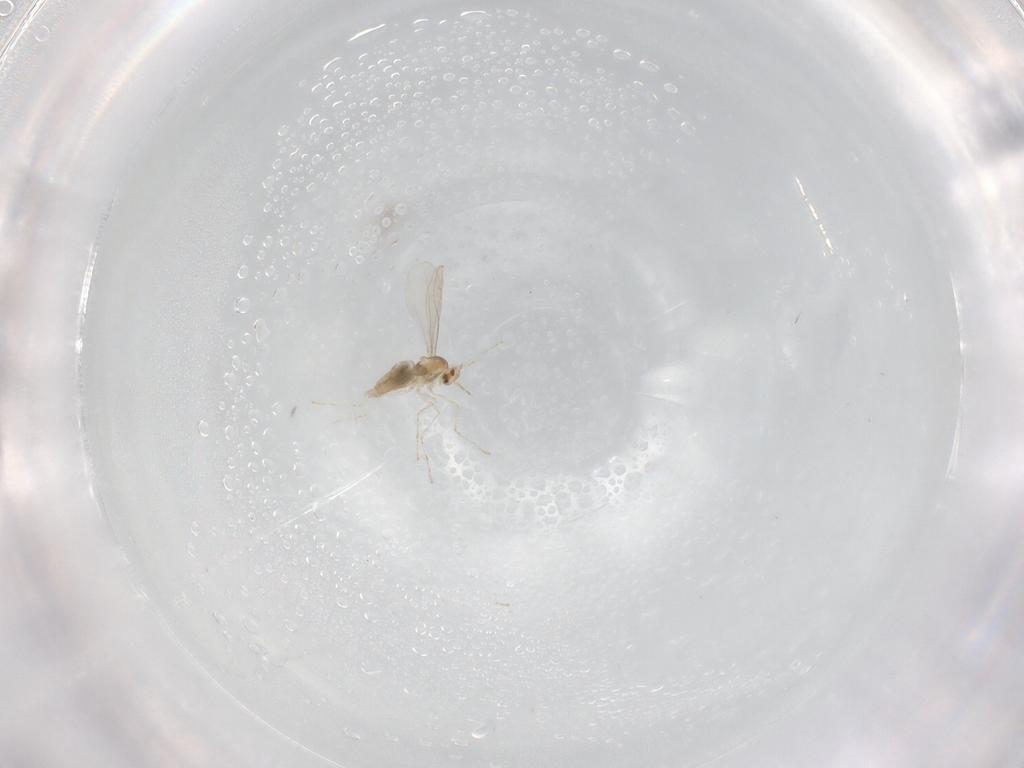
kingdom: Animalia
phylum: Arthropoda
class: Insecta
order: Diptera
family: Cecidomyiidae
